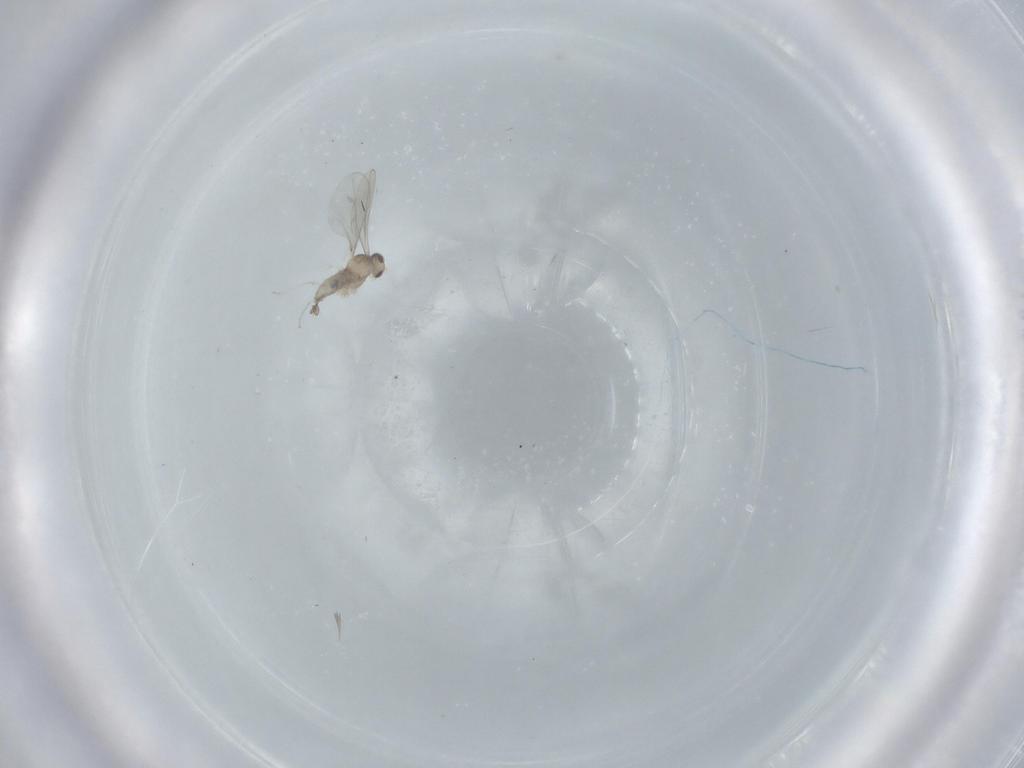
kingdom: Animalia
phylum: Arthropoda
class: Insecta
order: Diptera
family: Cecidomyiidae
